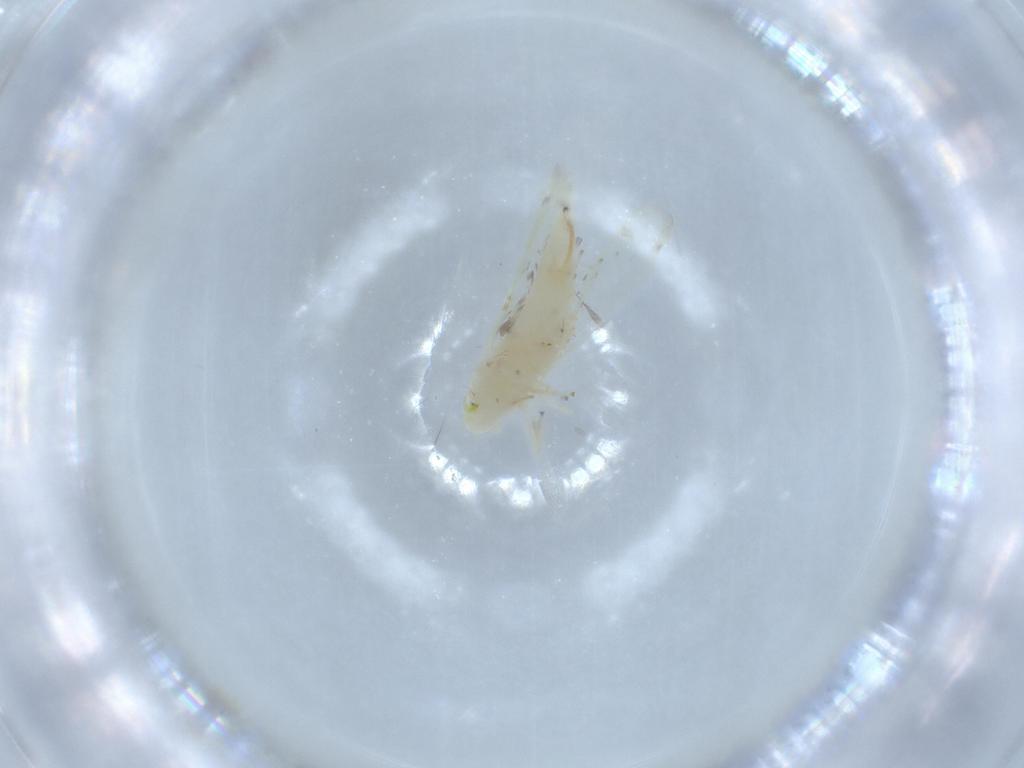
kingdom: Animalia
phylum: Arthropoda
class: Insecta
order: Hemiptera
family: Cicadellidae
